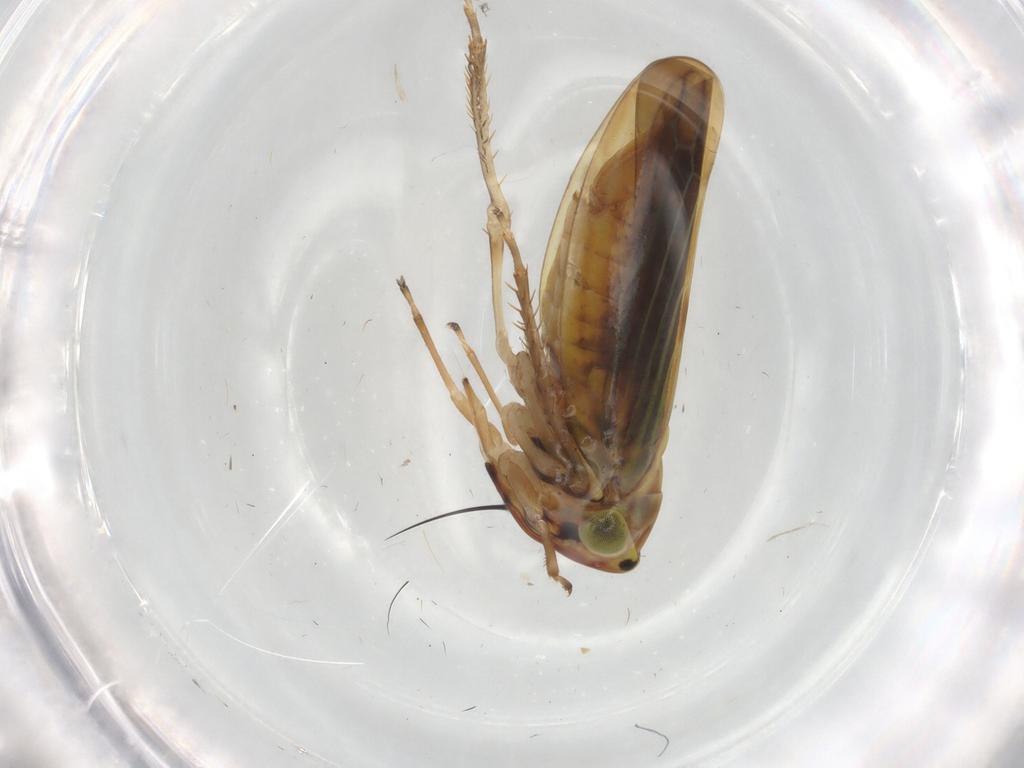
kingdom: Animalia
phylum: Arthropoda
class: Insecta
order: Hemiptera
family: Cicadellidae
